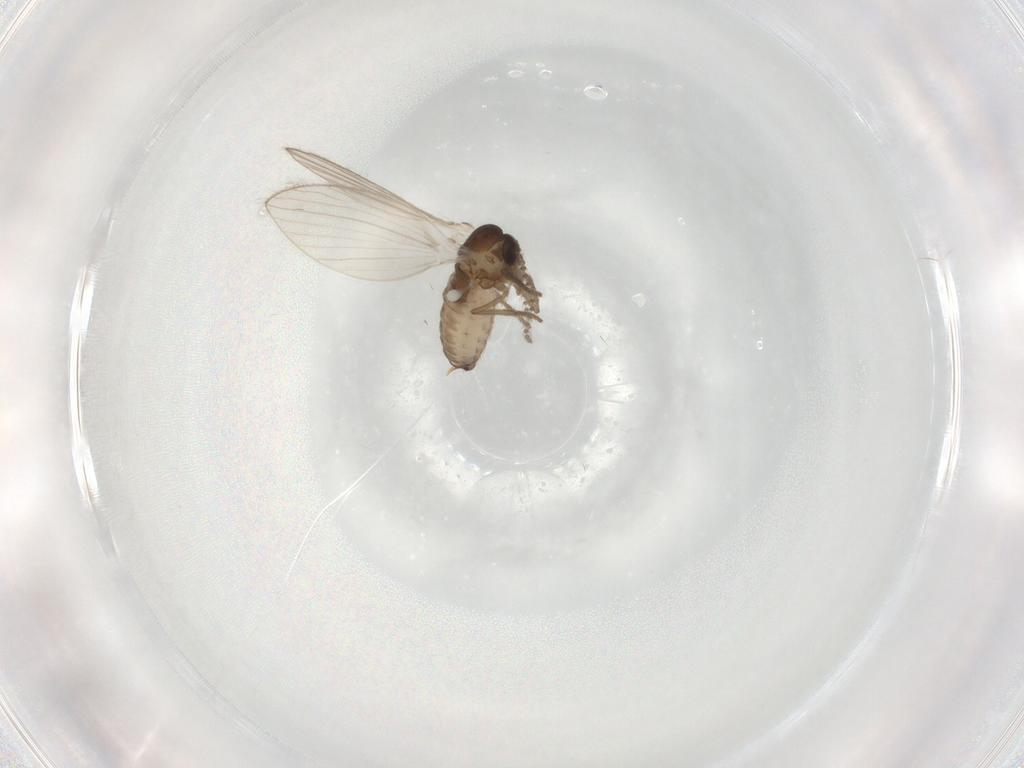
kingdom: Animalia
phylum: Arthropoda
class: Insecta
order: Diptera
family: Psychodidae
